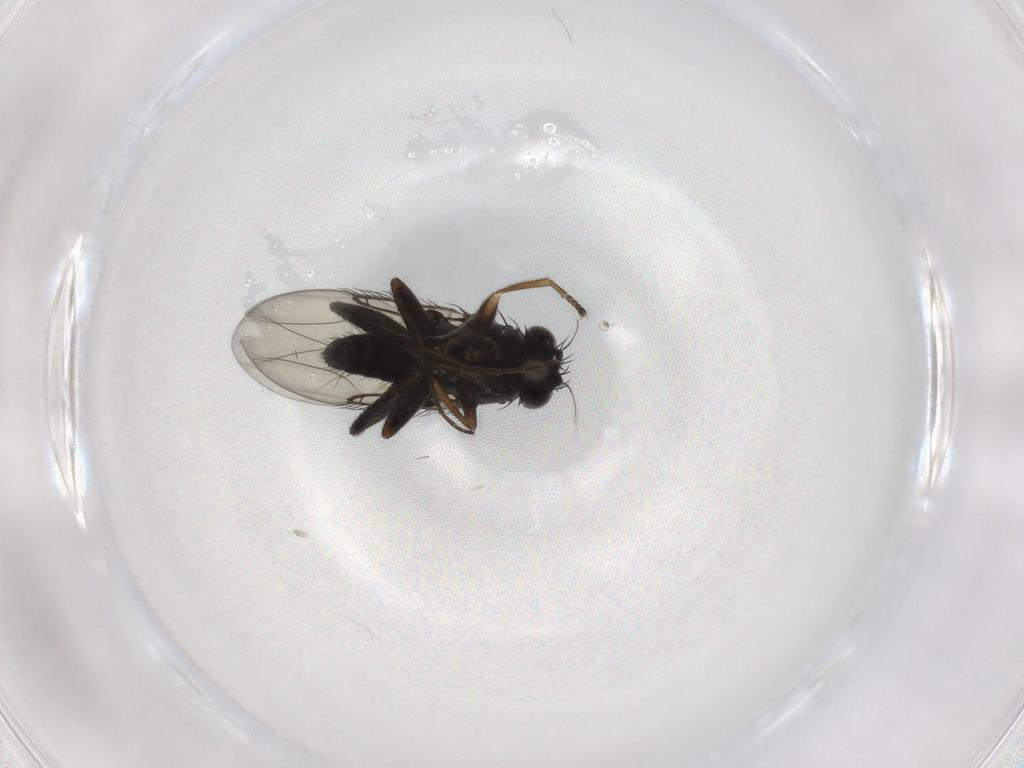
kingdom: Animalia
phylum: Arthropoda
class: Insecta
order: Diptera
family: Phoridae
